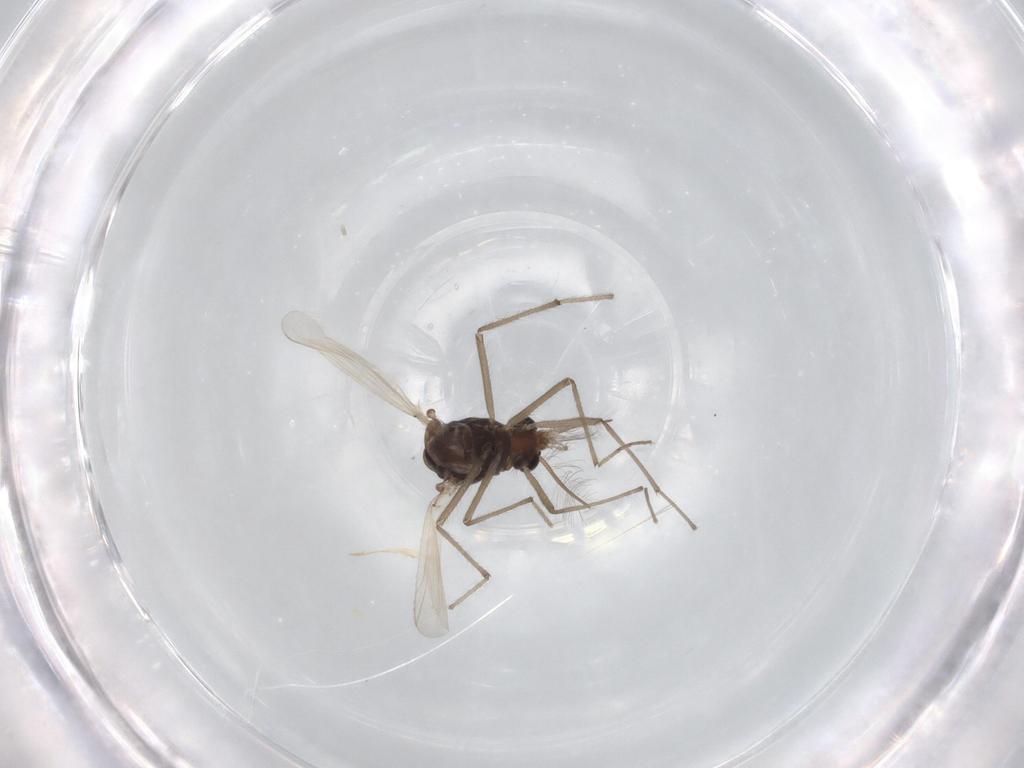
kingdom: Animalia
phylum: Arthropoda
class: Insecta
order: Diptera
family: Chironomidae
